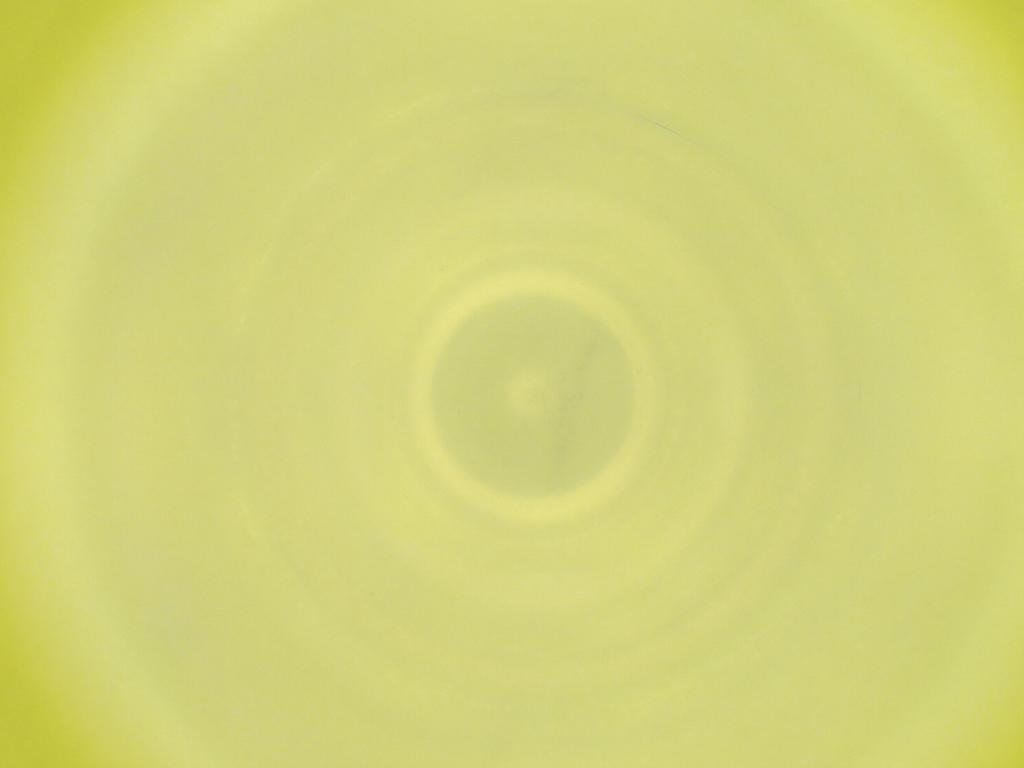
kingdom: Animalia
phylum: Arthropoda
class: Insecta
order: Diptera
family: Cecidomyiidae
